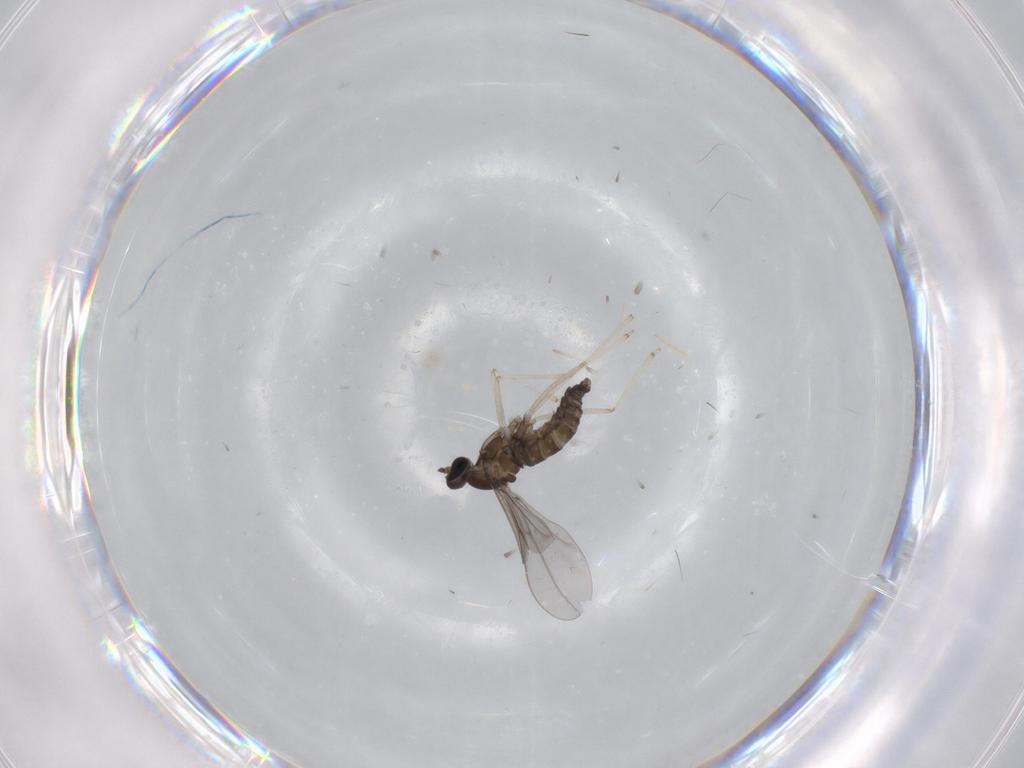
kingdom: Animalia
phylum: Arthropoda
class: Insecta
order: Diptera
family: Cecidomyiidae
